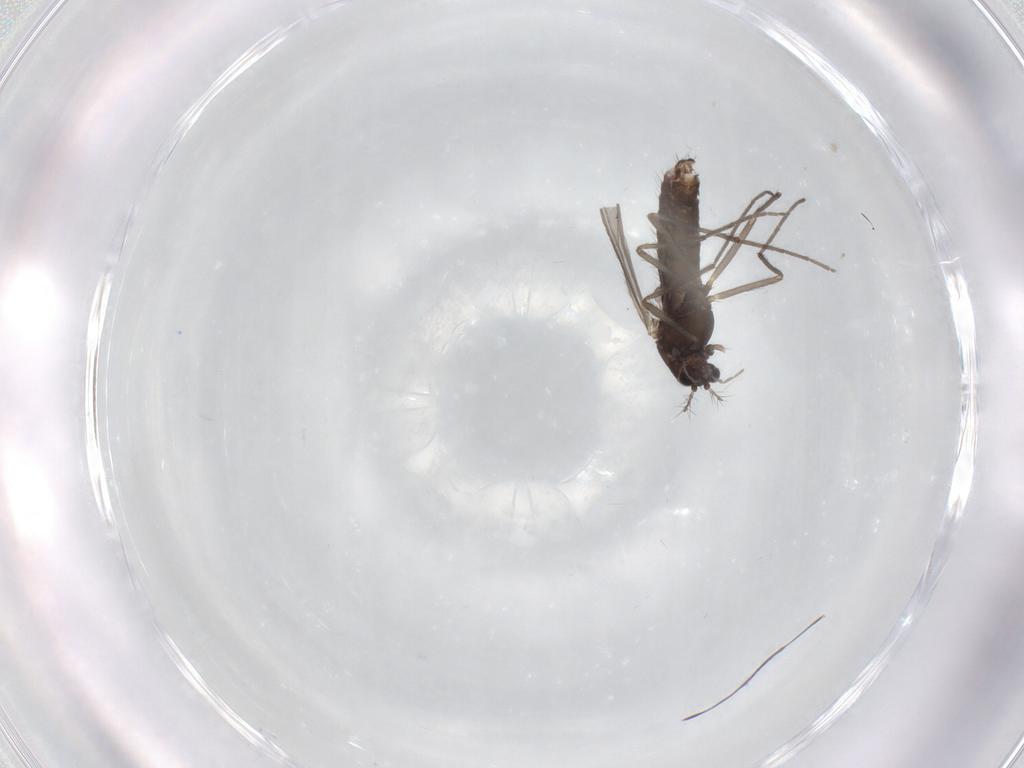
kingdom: Animalia
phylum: Arthropoda
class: Insecta
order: Diptera
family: Chironomidae
